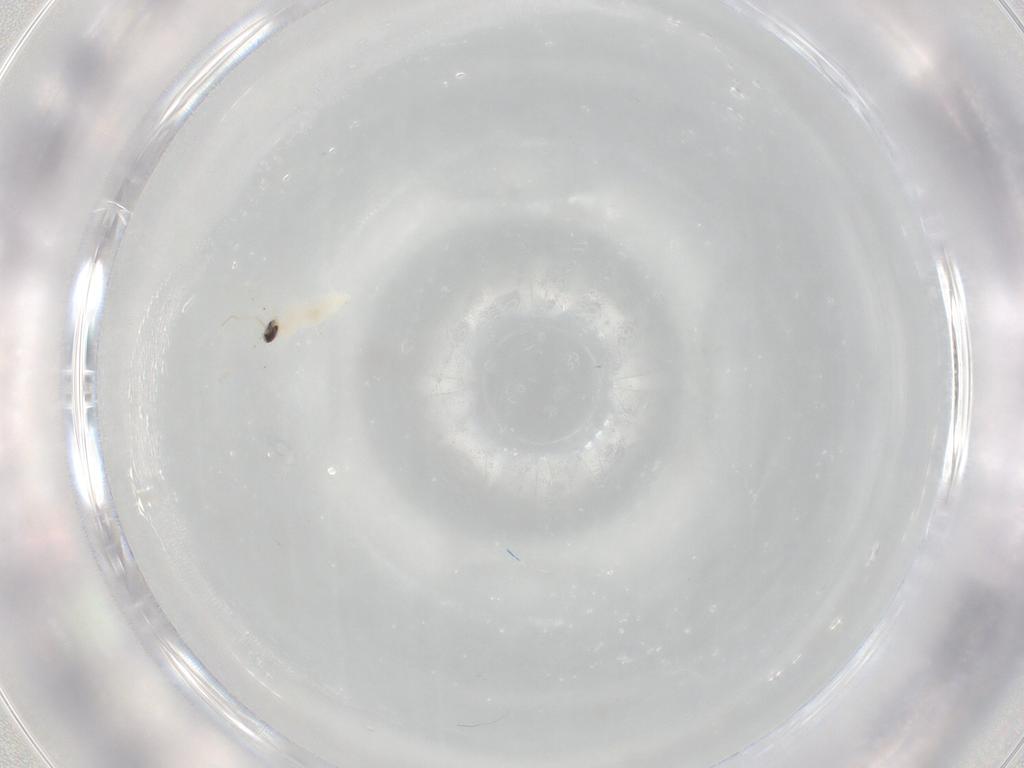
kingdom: Animalia
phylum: Arthropoda
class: Insecta
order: Diptera
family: Cecidomyiidae
